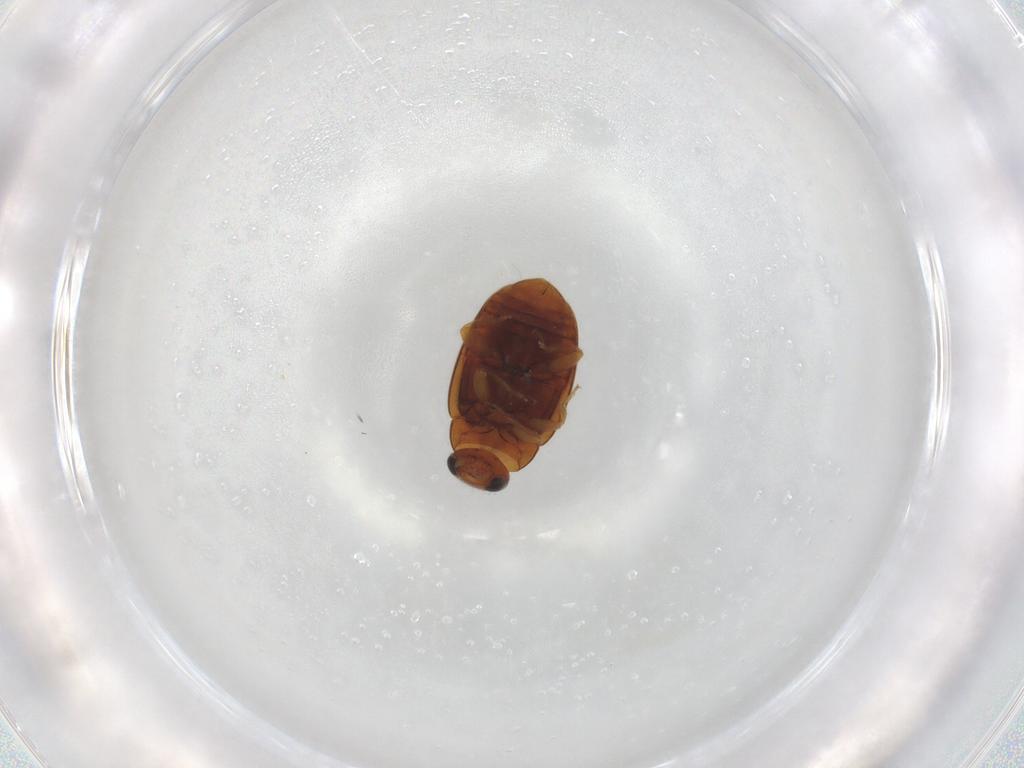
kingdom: Animalia
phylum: Arthropoda
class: Insecta
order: Coleoptera
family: Coccinellidae
